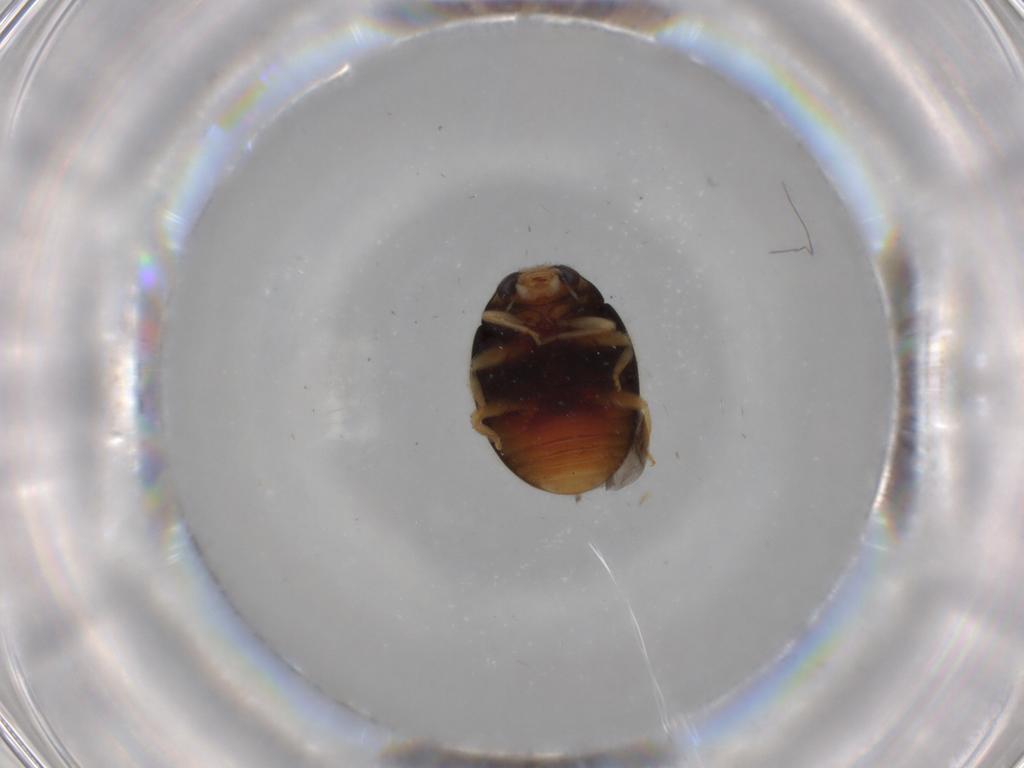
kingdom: Animalia
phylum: Arthropoda
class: Insecta
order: Coleoptera
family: Coccinellidae
